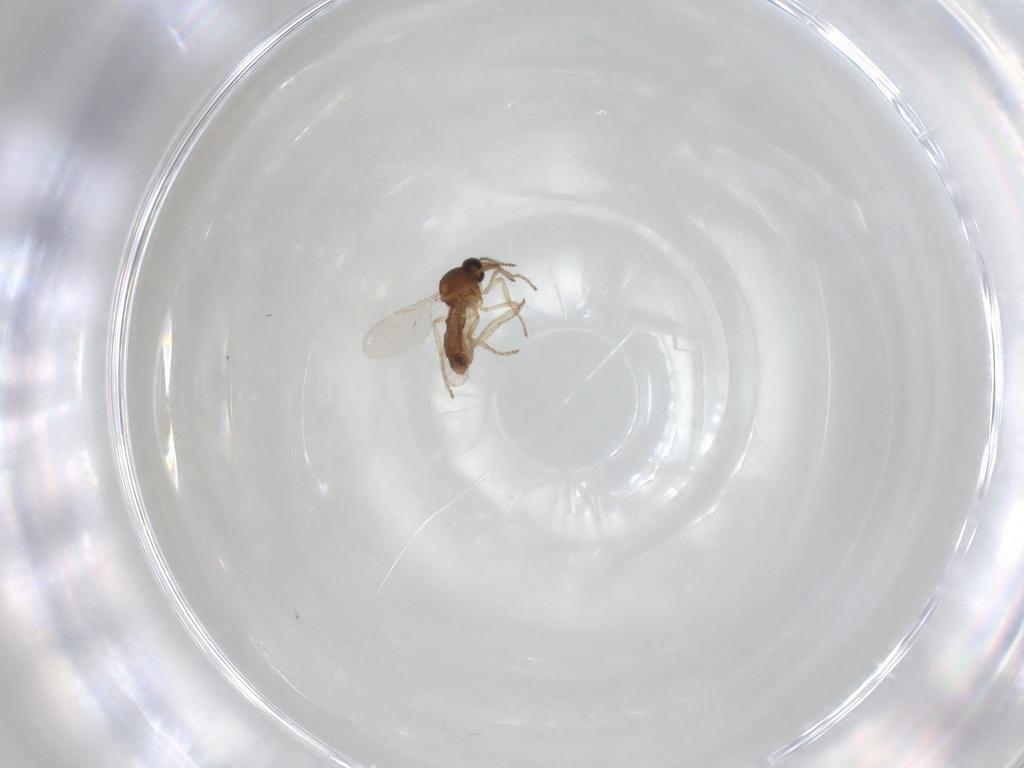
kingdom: Animalia
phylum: Arthropoda
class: Insecta
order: Diptera
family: Ceratopogonidae
